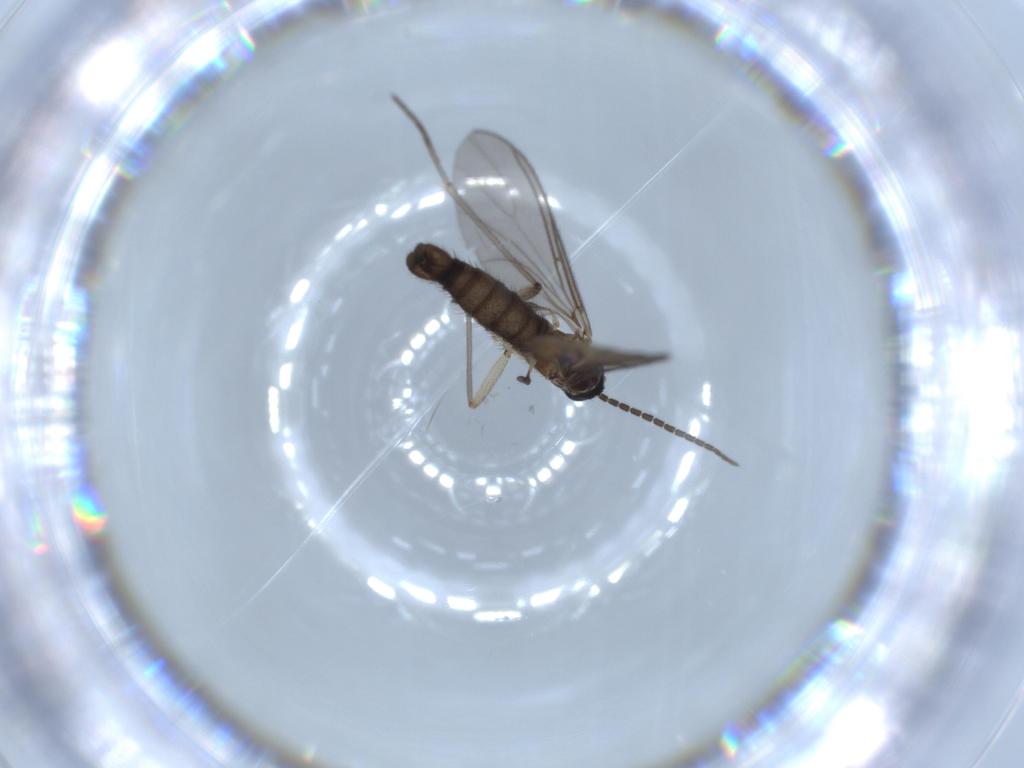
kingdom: Animalia
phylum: Arthropoda
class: Insecta
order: Diptera
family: Sciaridae
